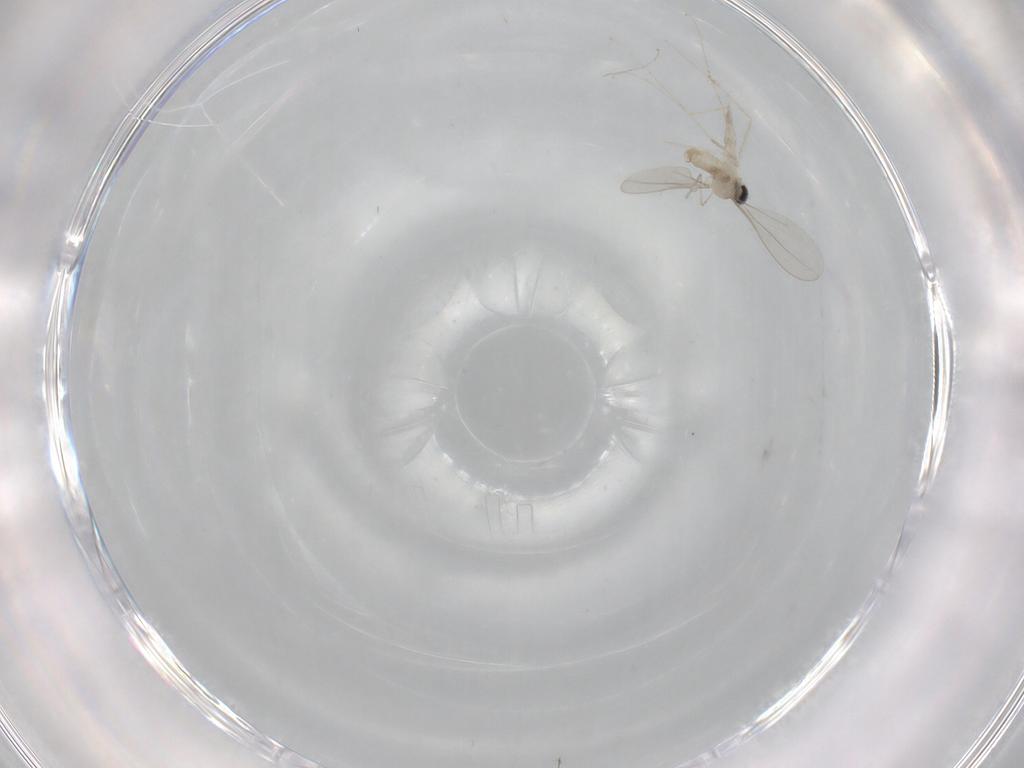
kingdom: Animalia
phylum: Arthropoda
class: Insecta
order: Diptera
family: Cecidomyiidae
